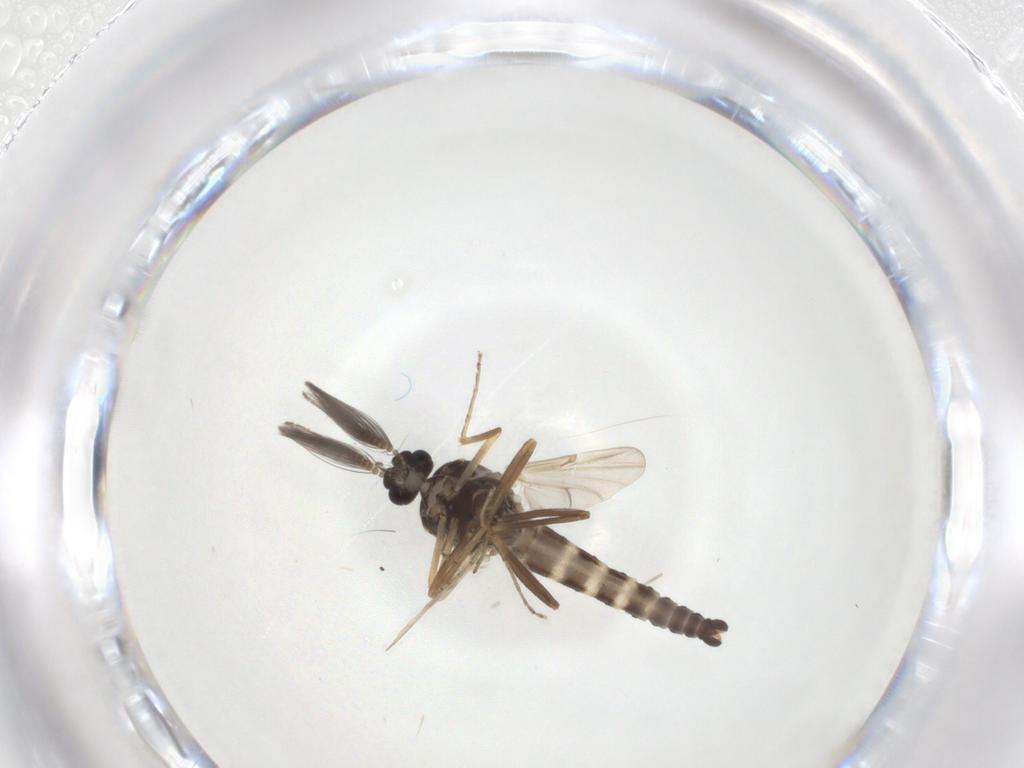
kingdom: Animalia
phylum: Arthropoda
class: Insecta
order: Diptera
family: Ceratopogonidae
